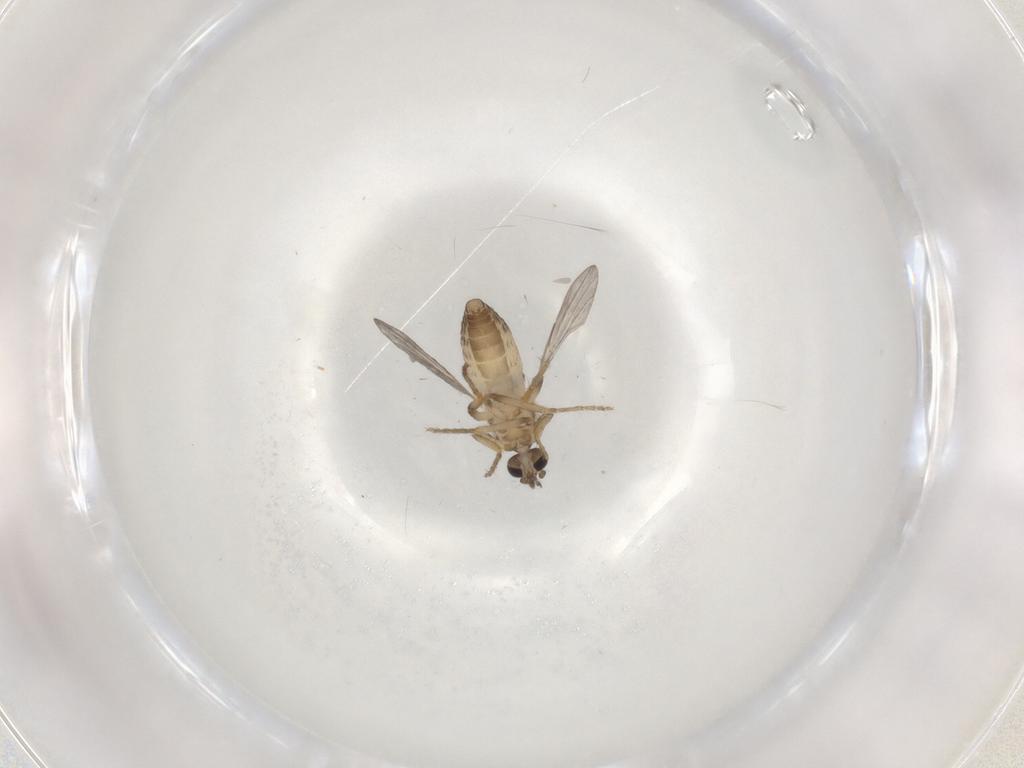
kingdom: Animalia
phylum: Arthropoda
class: Insecta
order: Diptera
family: Ceratopogonidae
